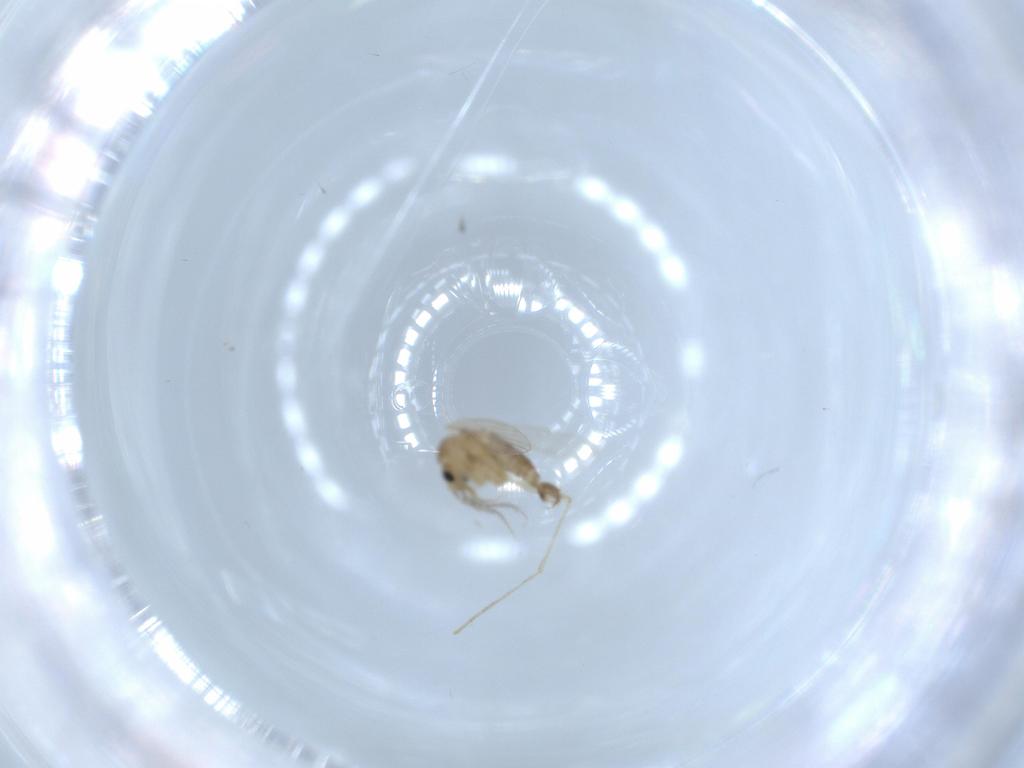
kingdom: Animalia
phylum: Arthropoda
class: Insecta
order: Diptera
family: Psychodidae
